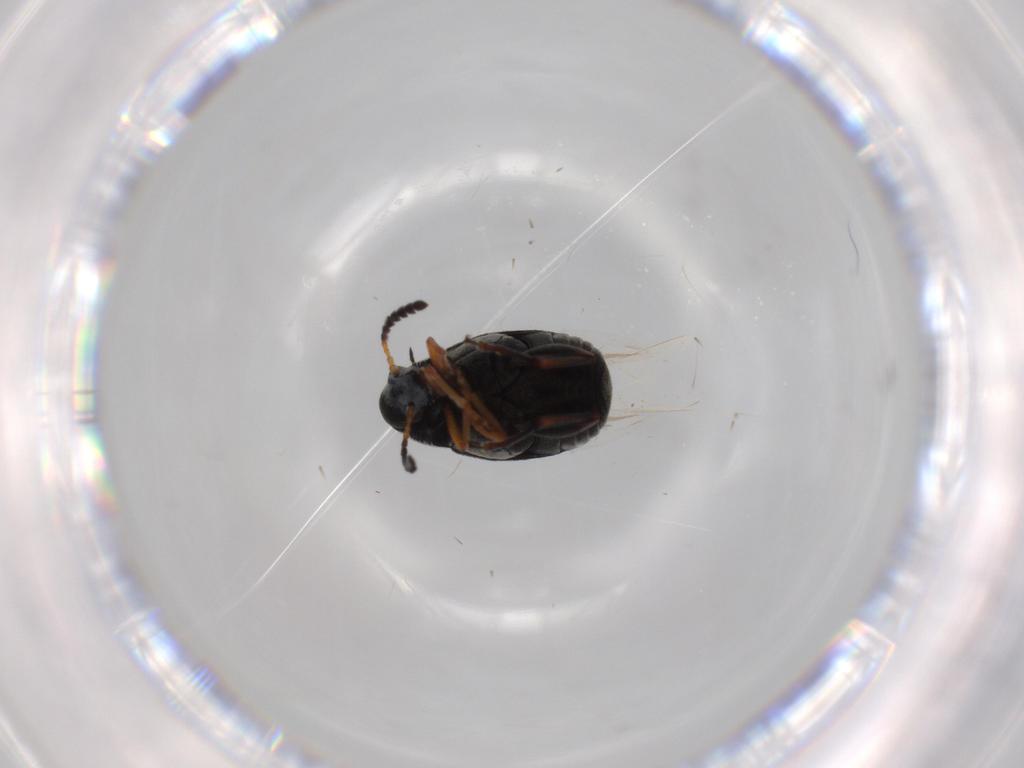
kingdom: Animalia
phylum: Arthropoda
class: Insecta
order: Coleoptera
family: Chrysomelidae
